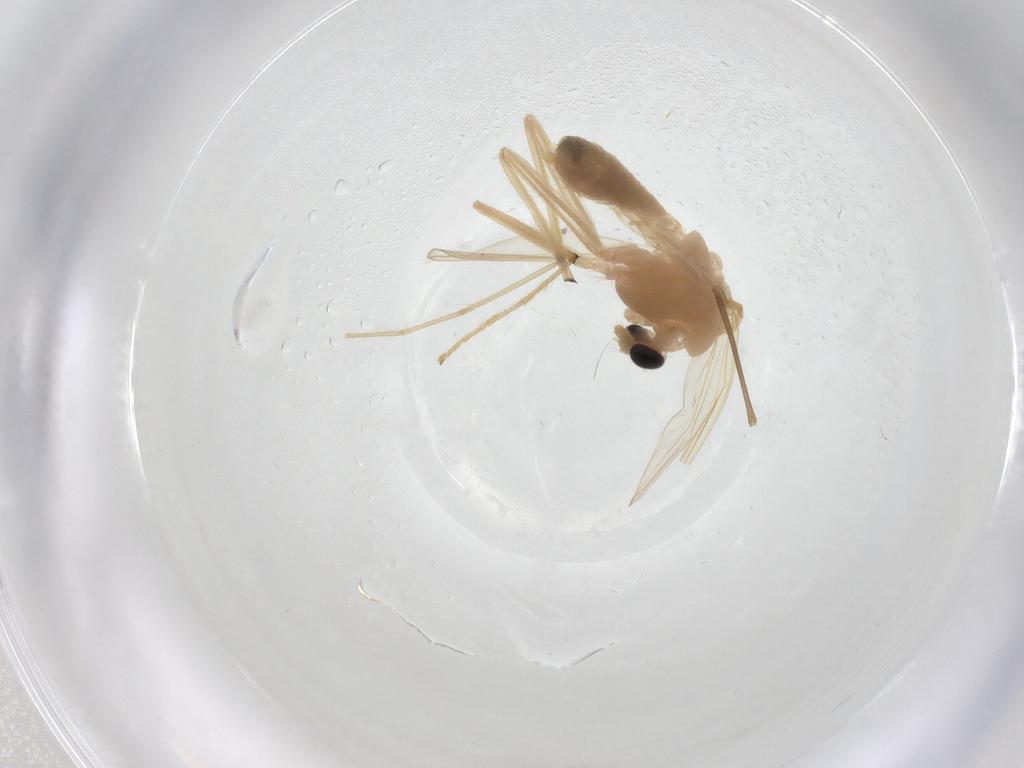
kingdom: Animalia
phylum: Arthropoda
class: Insecta
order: Diptera
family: Chironomidae
